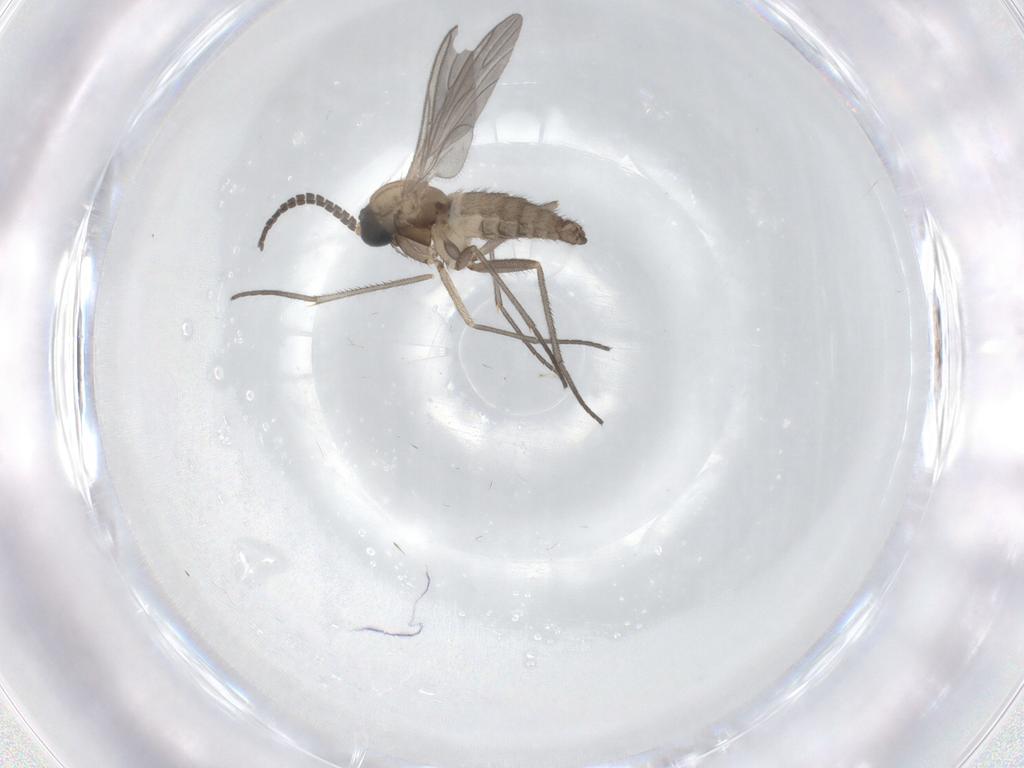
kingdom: Animalia
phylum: Arthropoda
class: Insecta
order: Diptera
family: Sciaridae
